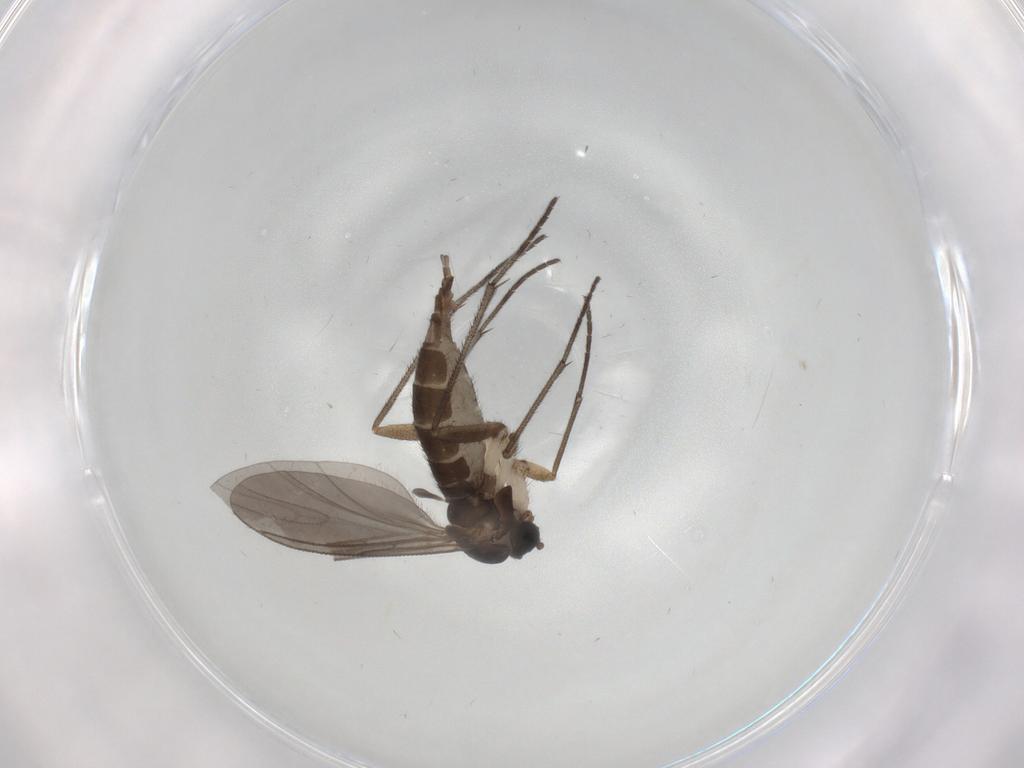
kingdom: Animalia
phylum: Arthropoda
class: Insecta
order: Diptera
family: Sciaridae
